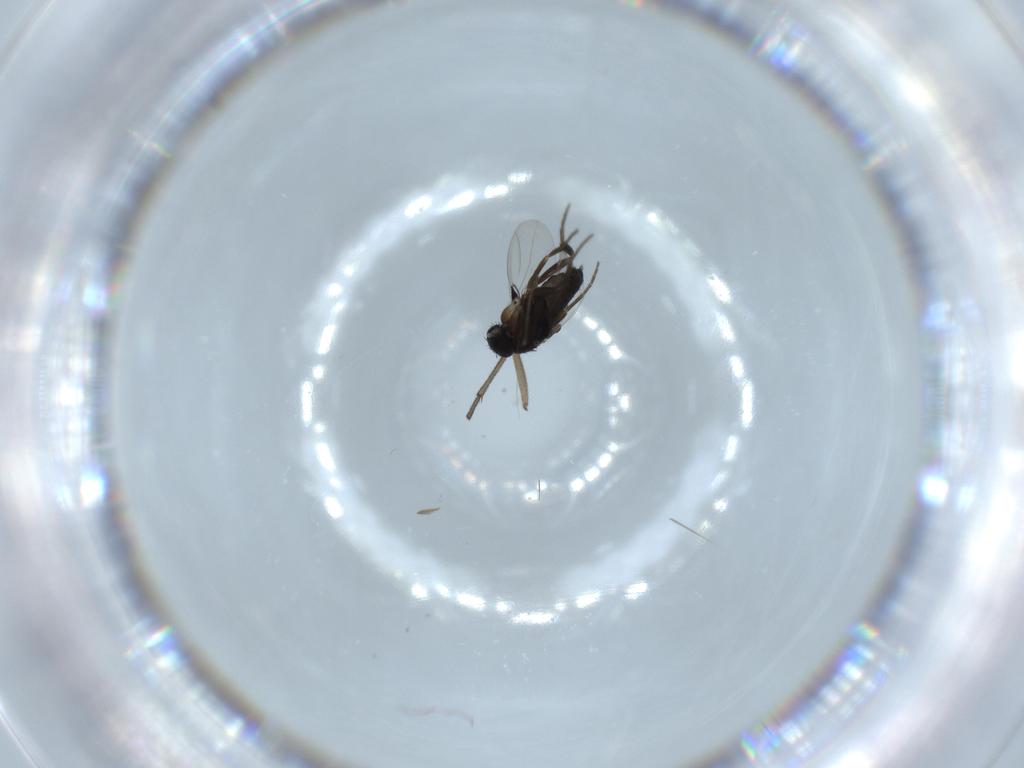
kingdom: Animalia
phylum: Arthropoda
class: Insecta
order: Diptera
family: Phoridae
